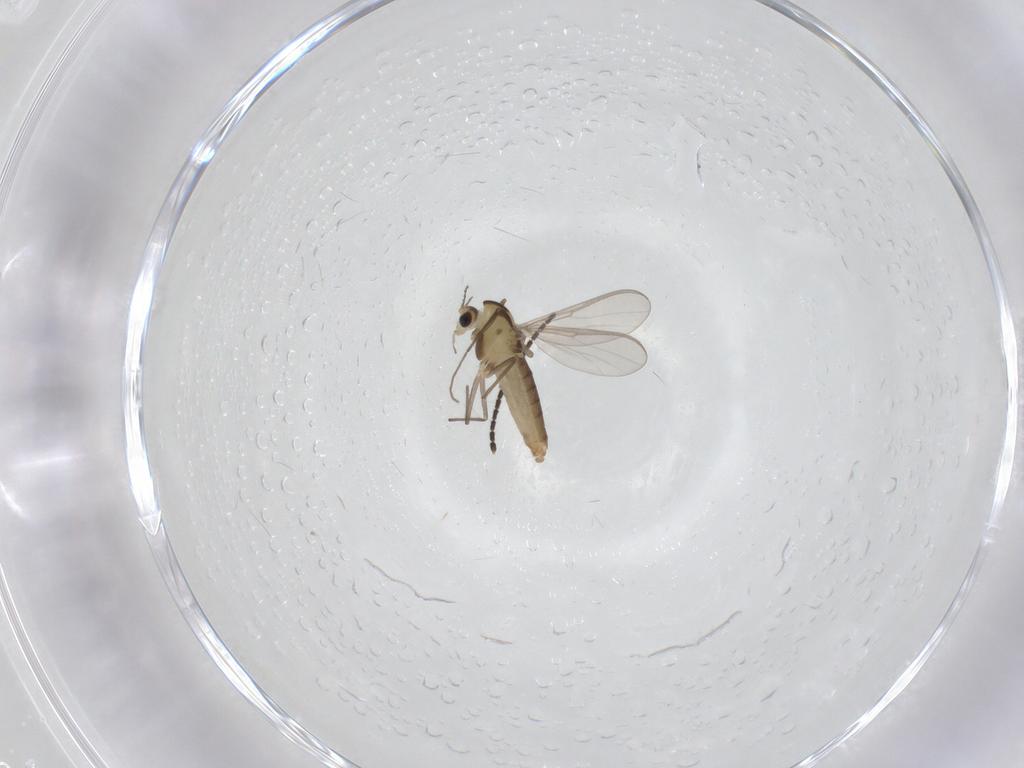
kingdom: Animalia
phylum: Arthropoda
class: Insecta
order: Diptera
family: Chironomidae
